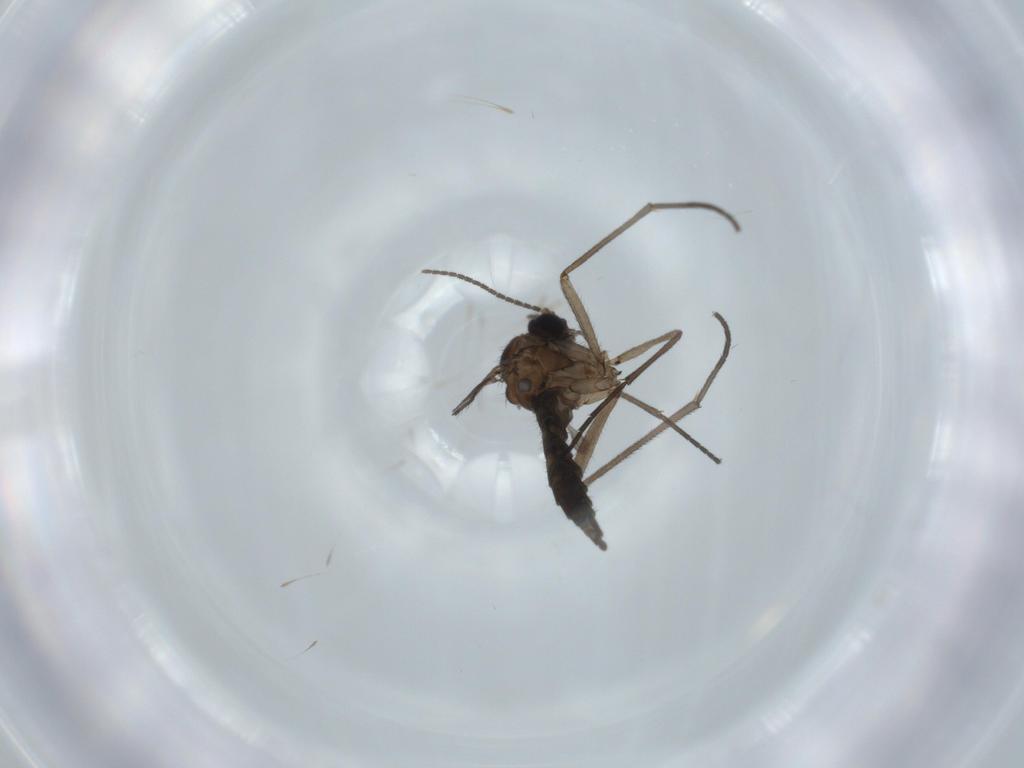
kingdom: Animalia
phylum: Arthropoda
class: Insecta
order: Diptera
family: Sciaridae
